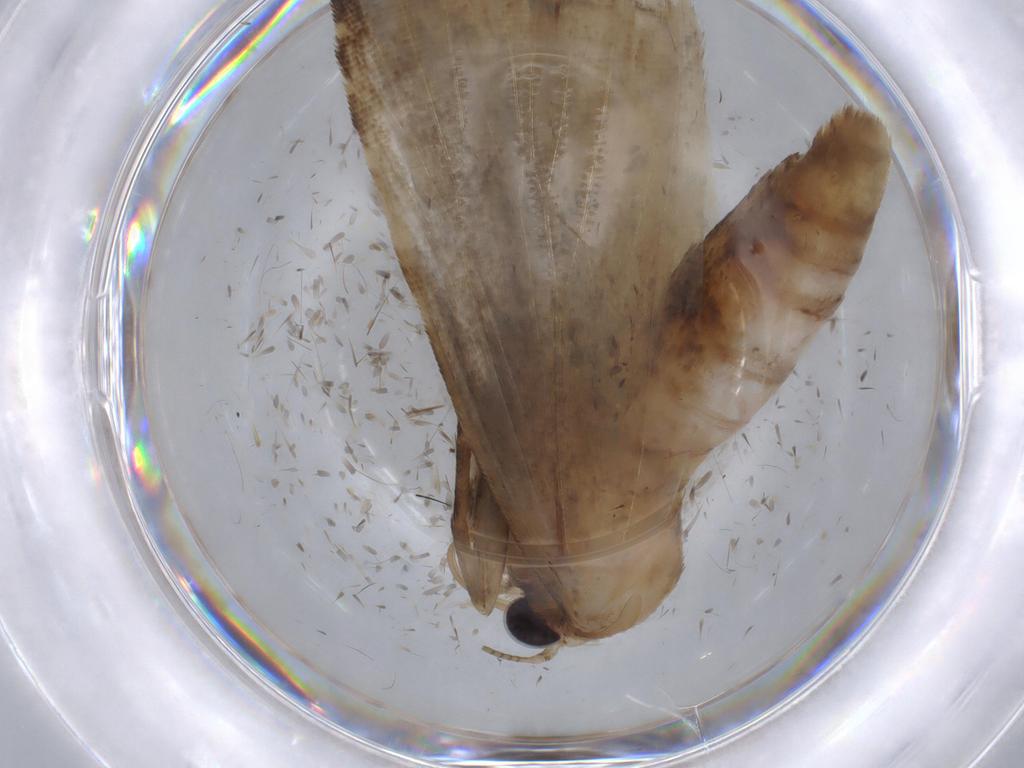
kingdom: Animalia
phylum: Arthropoda
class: Insecta
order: Lepidoptera
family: Noctuidae
